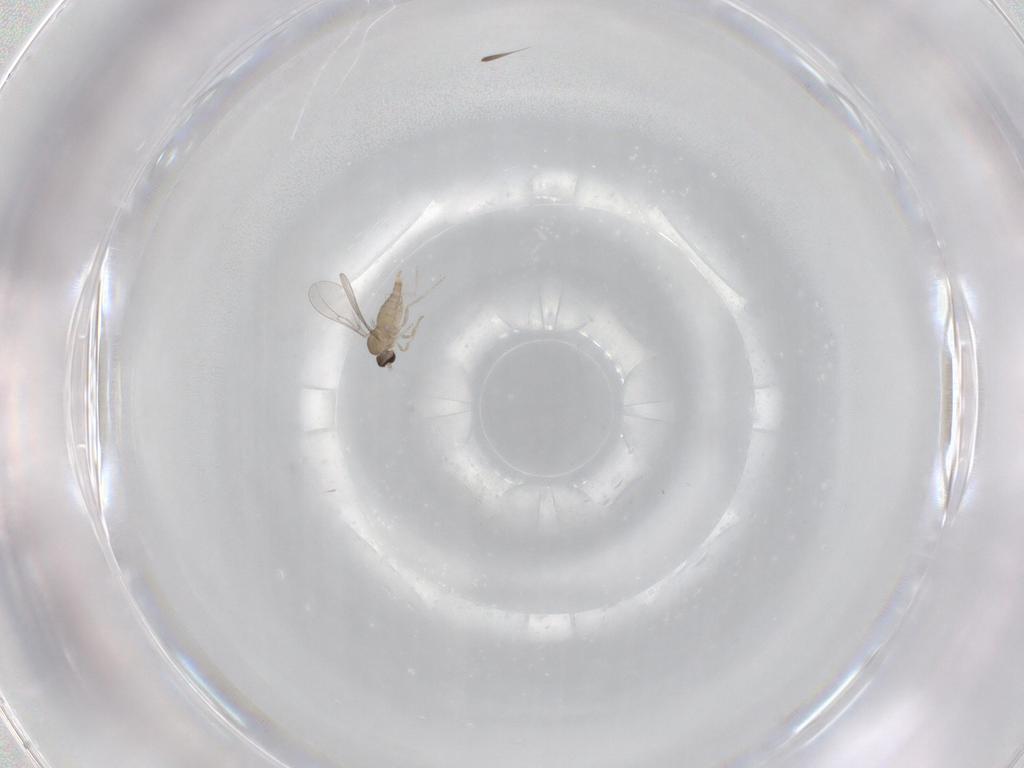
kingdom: Animalia
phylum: Arthropoda
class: Insecta
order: Diptera
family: Cecidomyiidae
